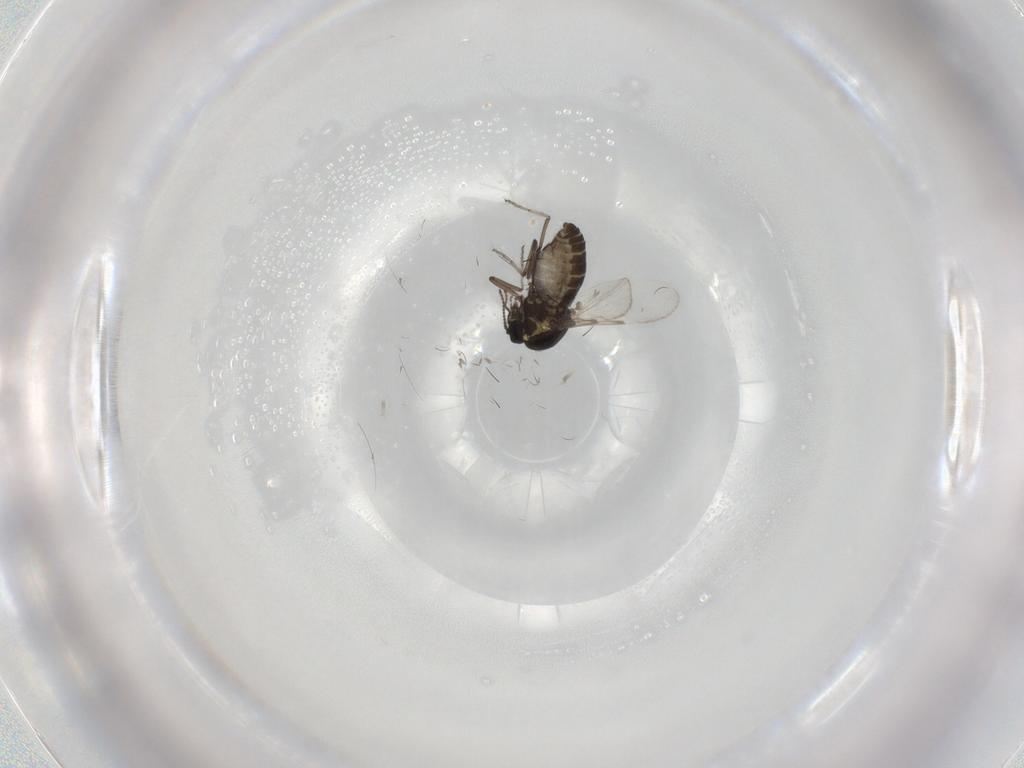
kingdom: Animalia
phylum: Arthropoda
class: Insecta
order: Diptera
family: Ceratopogonidae
